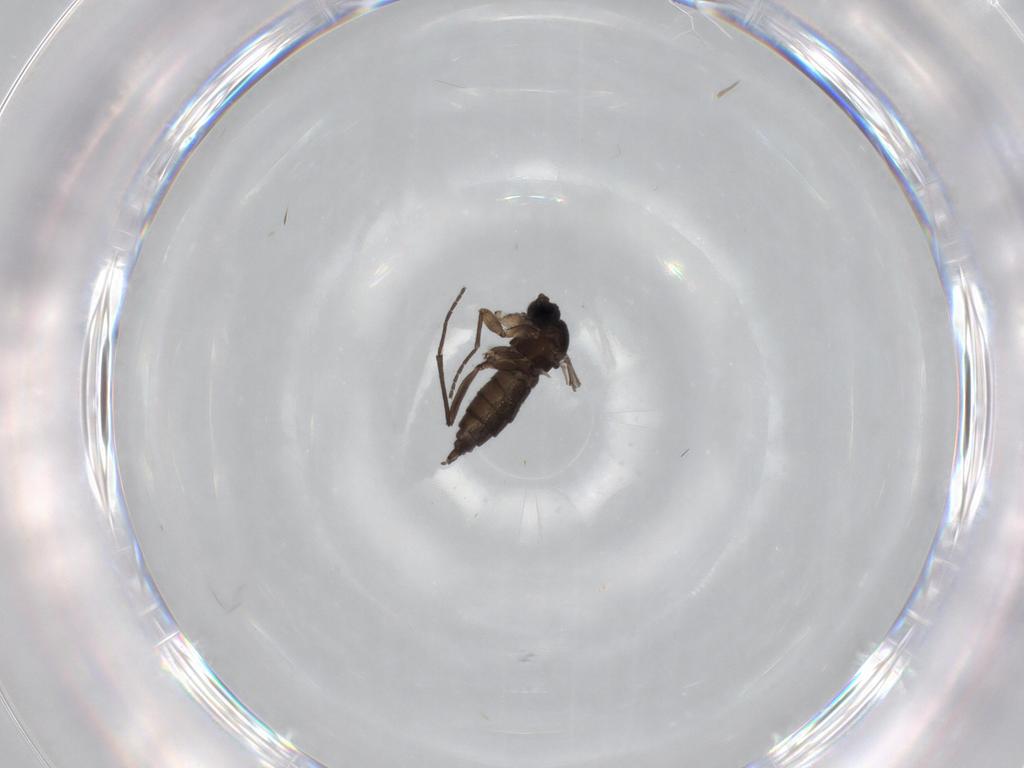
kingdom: Animalia
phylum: Arthropoda
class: Insecta
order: Diptera
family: Sciaridae
